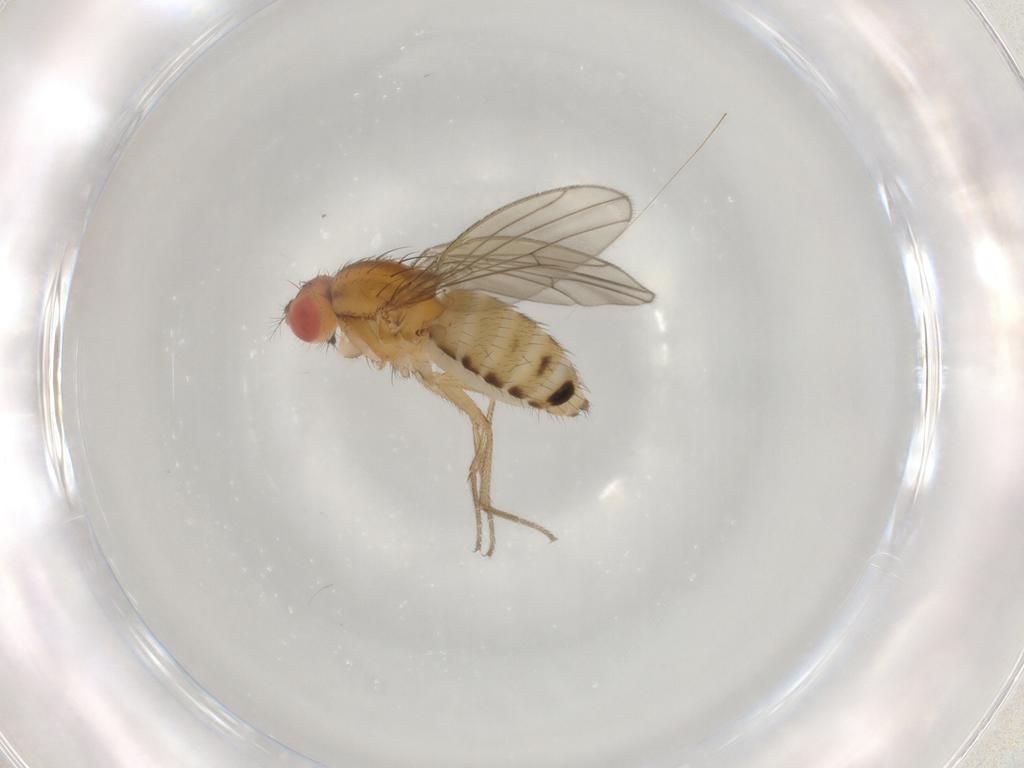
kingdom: Animalia
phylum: Arthropoda
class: Insecta
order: Diptera
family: Drosophilidae
